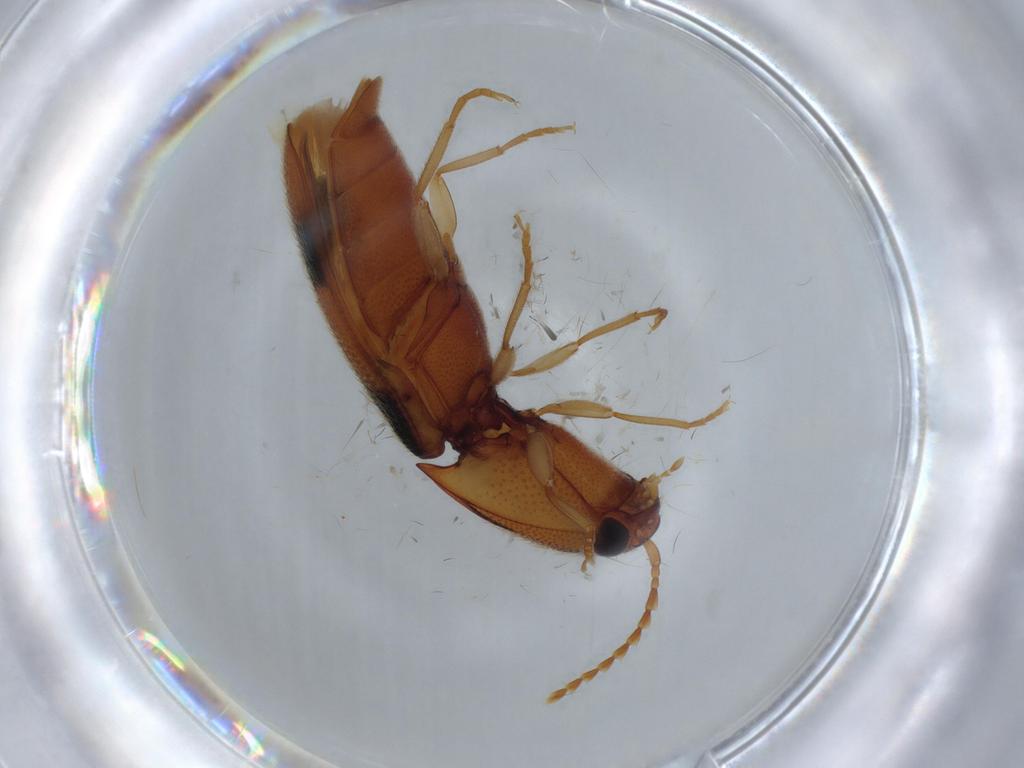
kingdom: Animalia
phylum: Arthropoda
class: Insecta
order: Coleoptera
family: Elateridae
